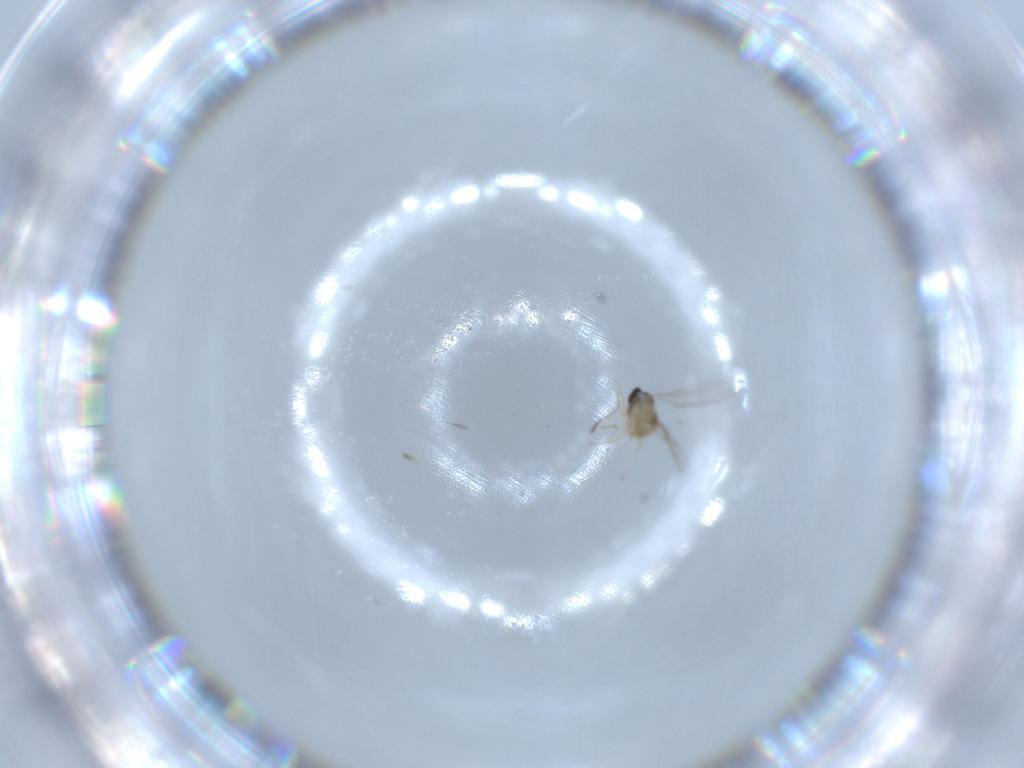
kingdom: Animalia
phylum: Arthropoda
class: Insecta
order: Diptera
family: Cecidomyiidae
